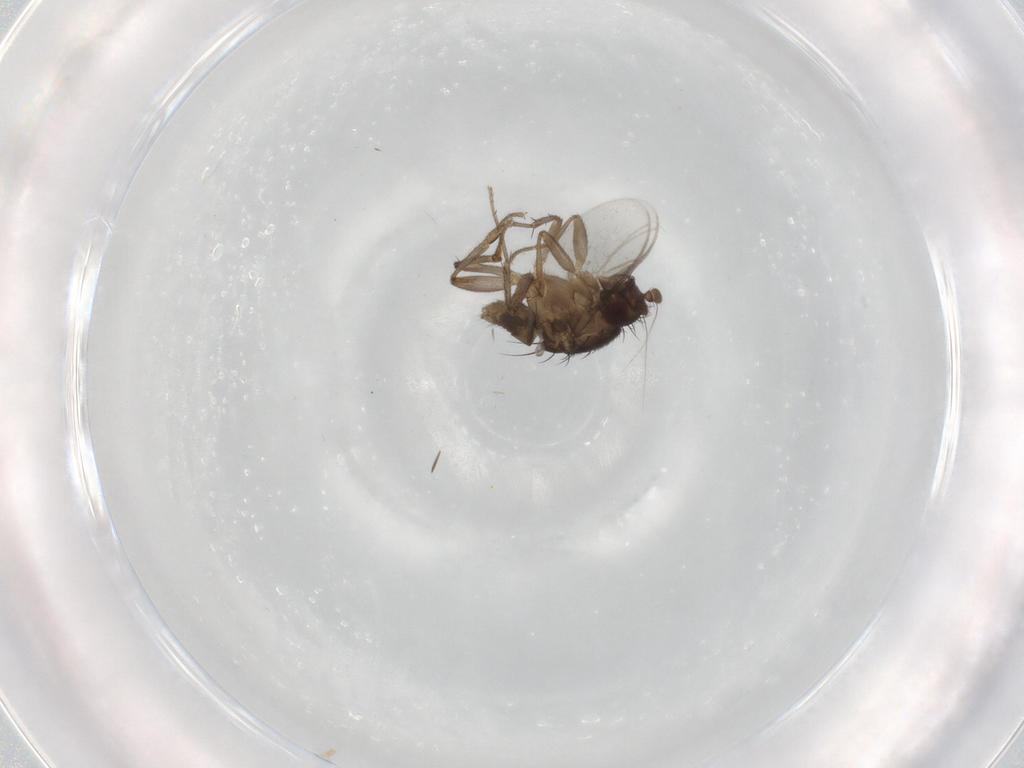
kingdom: Animalia
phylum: Arthropoda
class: Insecta
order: Diptera
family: Sphaeroceridae
